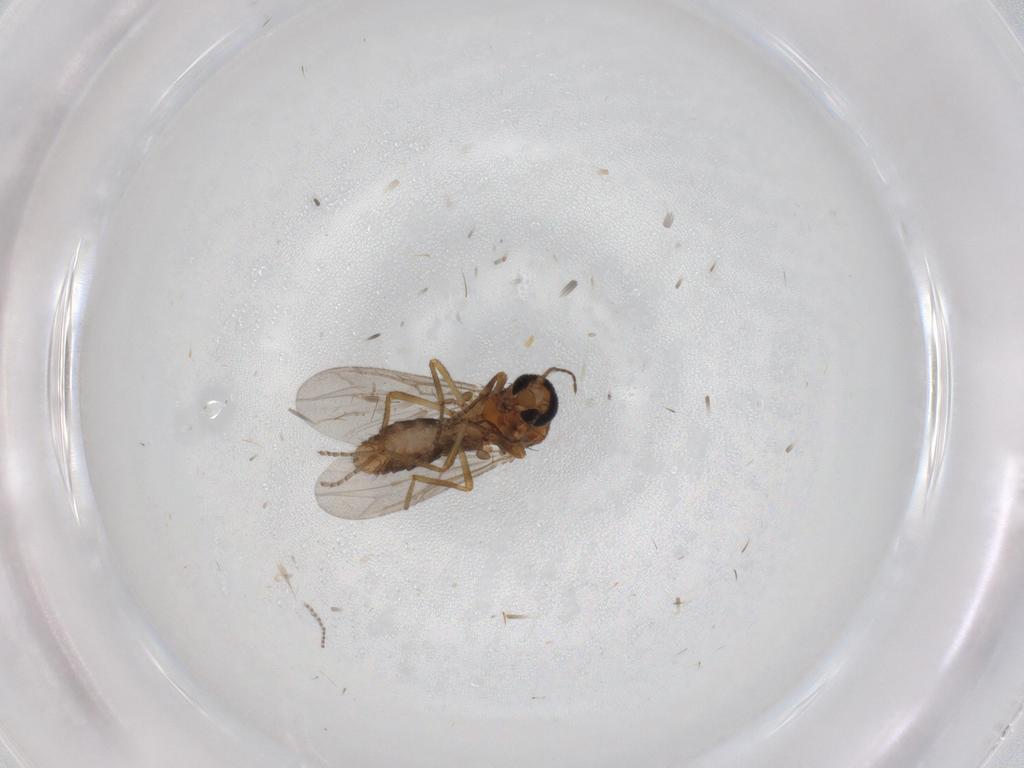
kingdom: Animalia
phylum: Arthropoda
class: Insecta
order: Diptera
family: Ceratopogonidae
